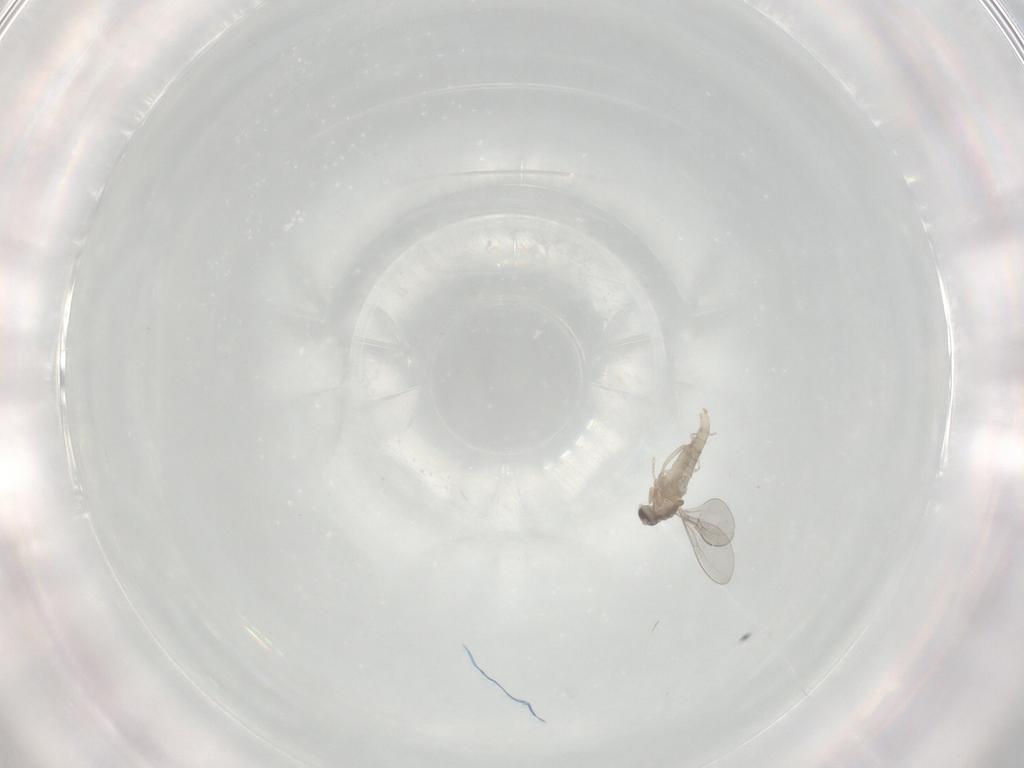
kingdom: Animalia
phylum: Arthropoda
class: Insecta
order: Diptera
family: Cecidomyiidae
